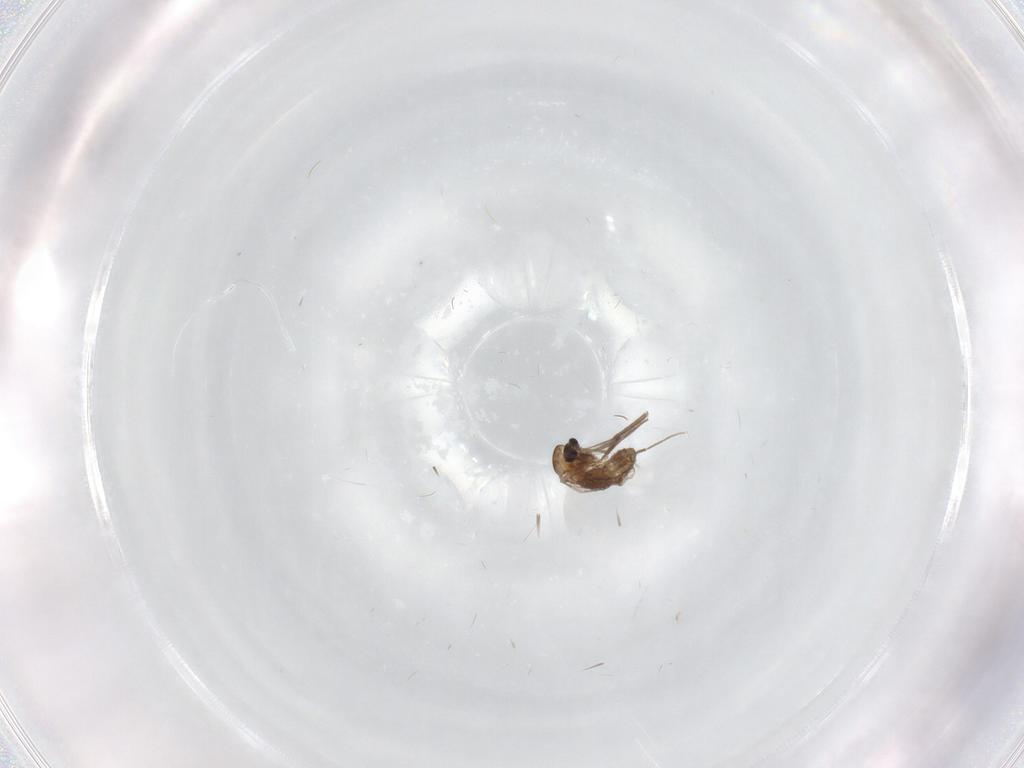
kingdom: Animalia
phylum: Arthropoda
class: Insecta
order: Diptera
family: Chironomidae
